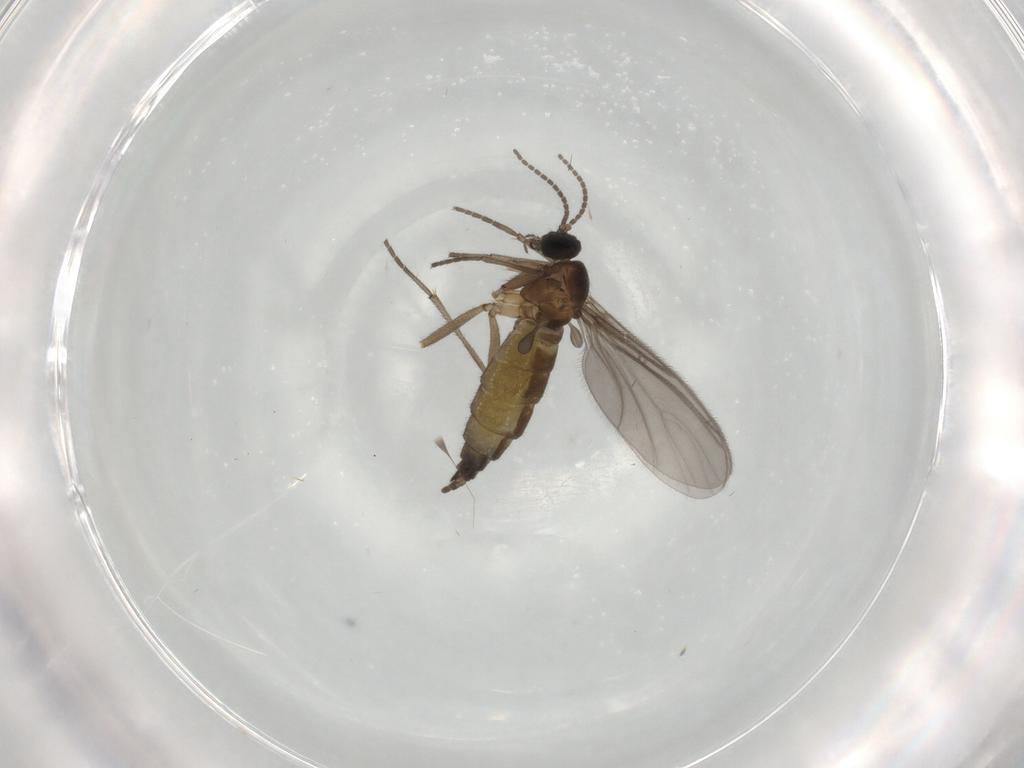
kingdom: Animalia
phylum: Arthropoda
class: Insecta
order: Diptera
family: Sciaridae
